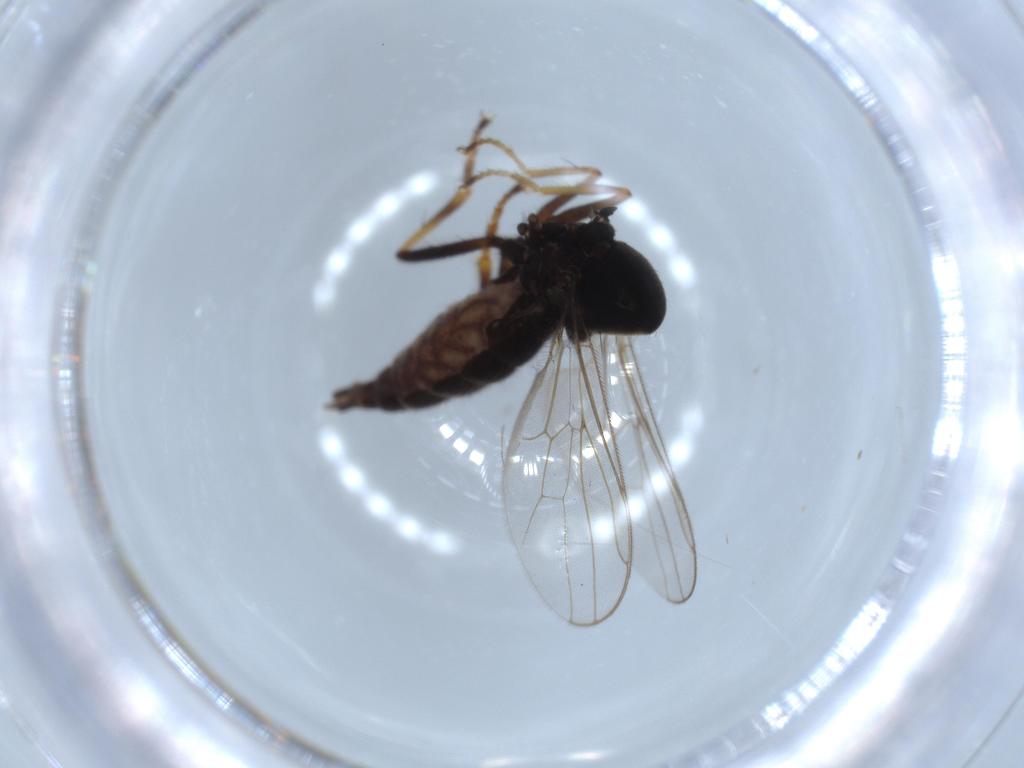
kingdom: Animalia
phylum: Arthropoda
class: Insecta
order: Diptera
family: Hybotidae
